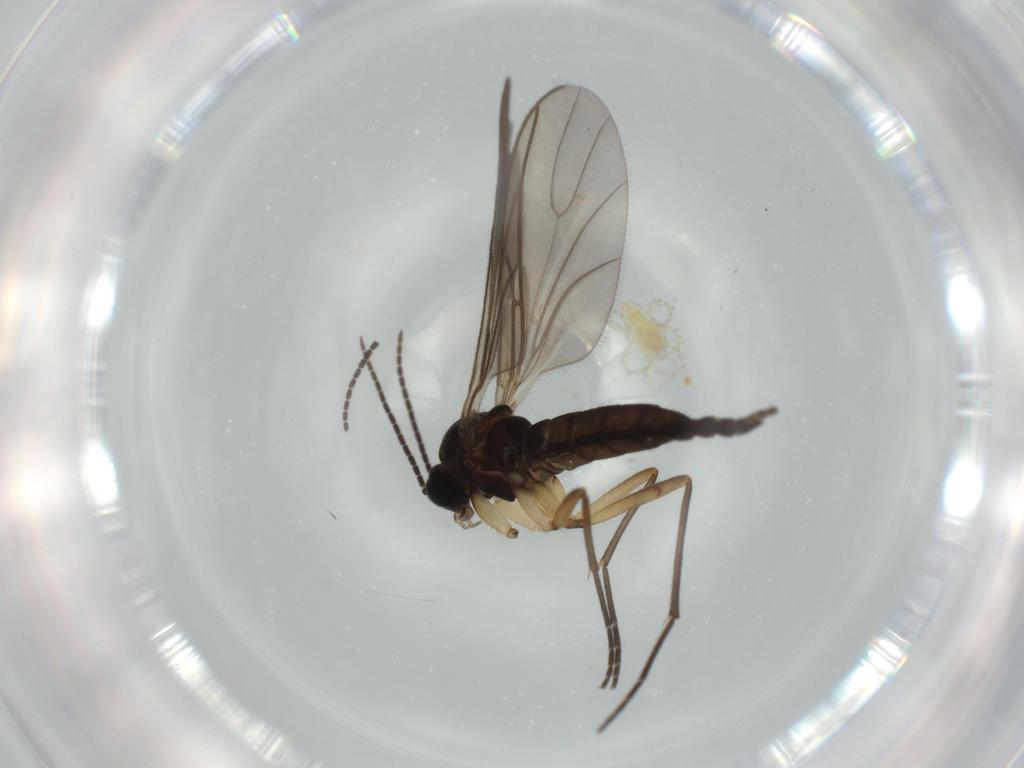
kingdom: Animalia
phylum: Arthropoda
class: Insecta
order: Diptera
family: Sciaridae
